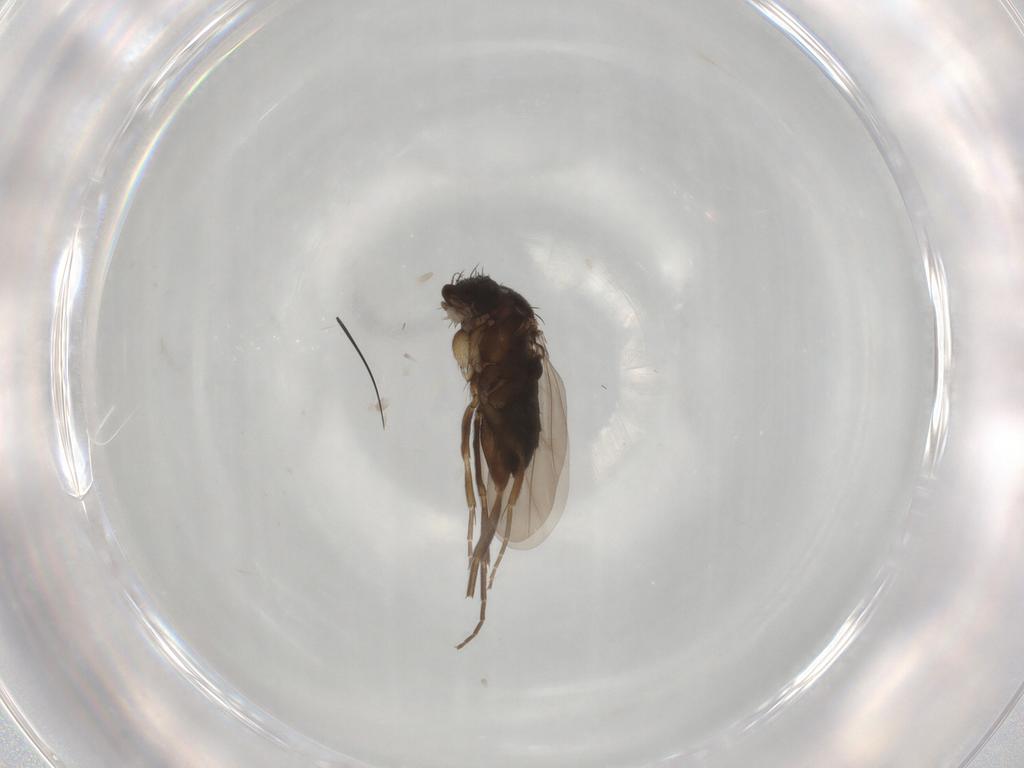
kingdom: Animalia
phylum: Arthropoda
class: Insecta
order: Diptera
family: Phoridae
